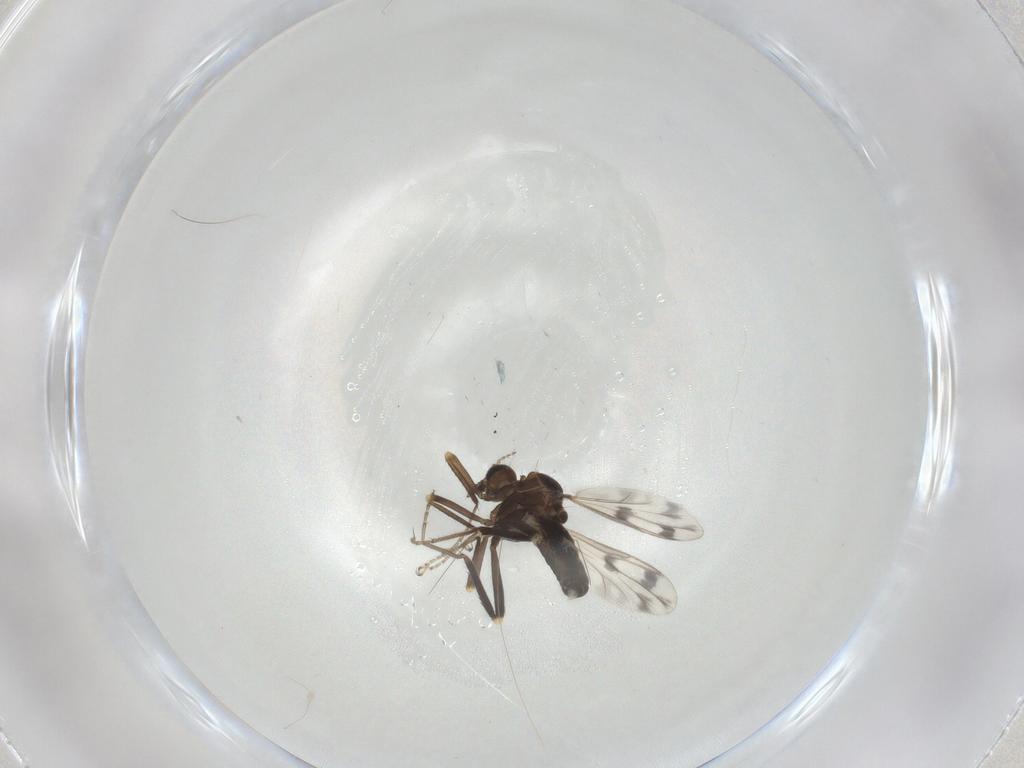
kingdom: Animalia
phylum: Arthropoda
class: Insecta
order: Diptera
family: Ceratopogonidae
